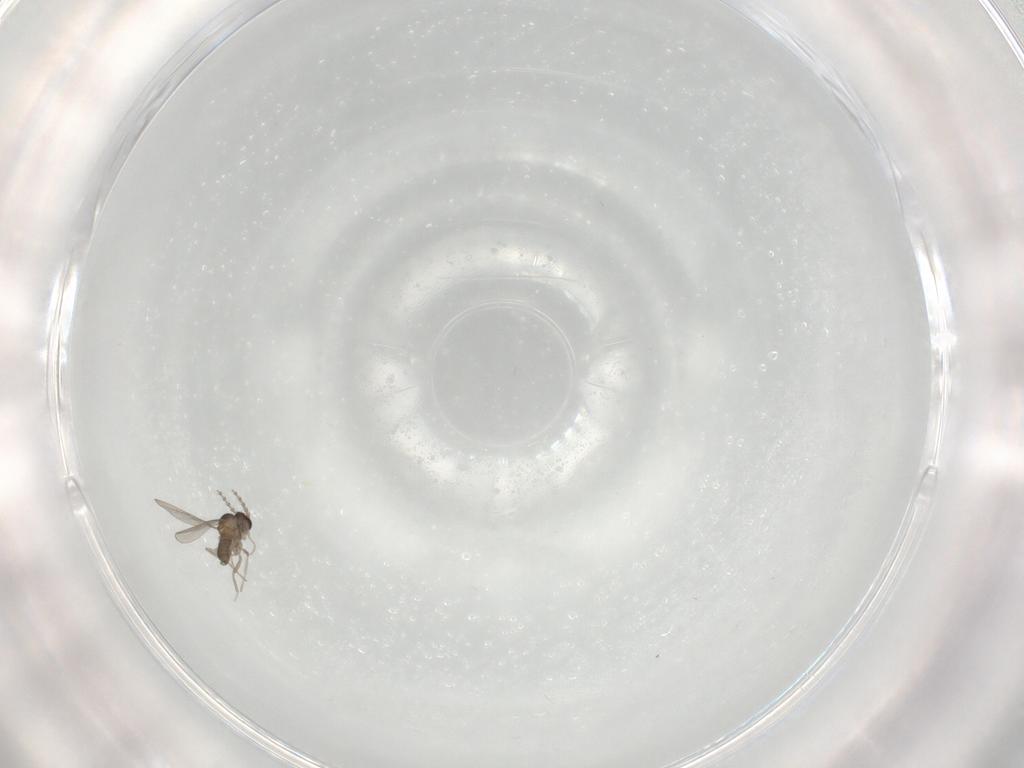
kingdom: Animalia
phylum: Arthropoda
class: Insecta
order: Diptera
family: Cecidomyiidae
